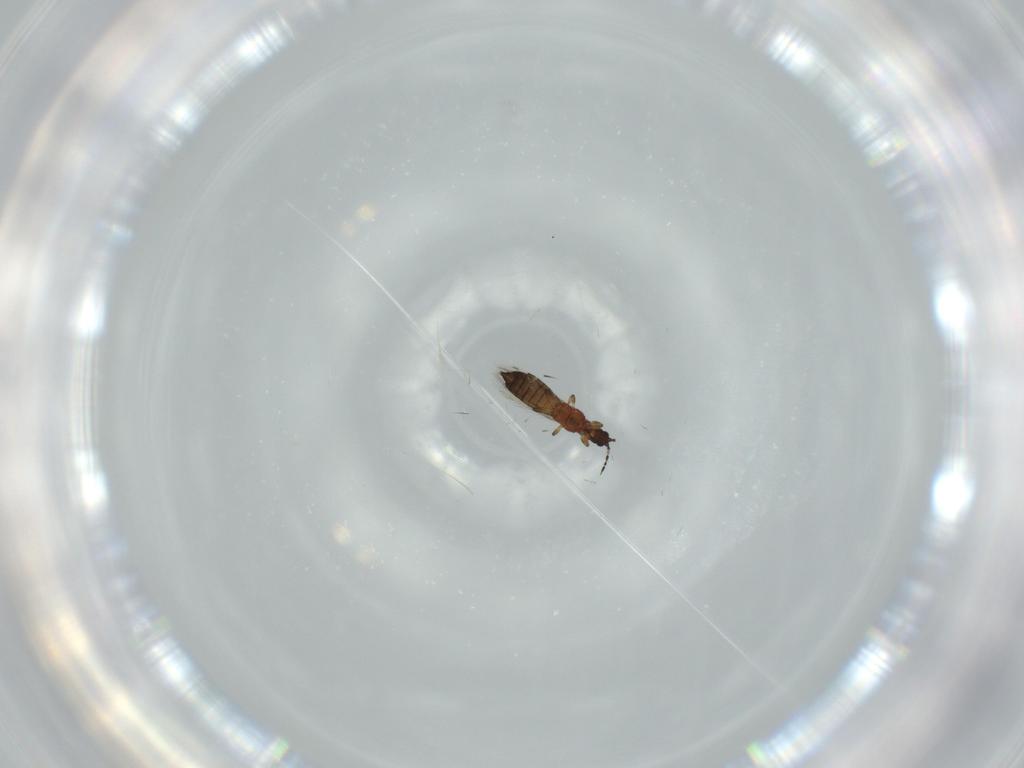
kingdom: Animalia
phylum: Arthropoda
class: Insecta
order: Thysanoptera
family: Thripidae
